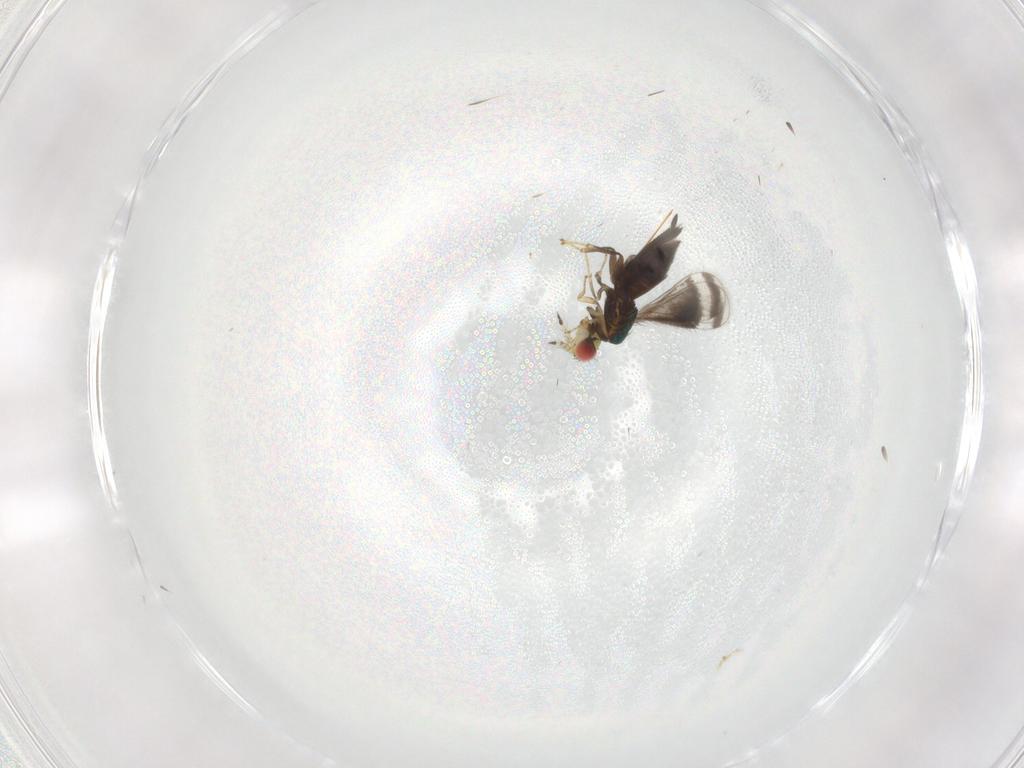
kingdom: Animalia
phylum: Arthropoda
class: Insecta
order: Hymenoptera
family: Eulophidae
